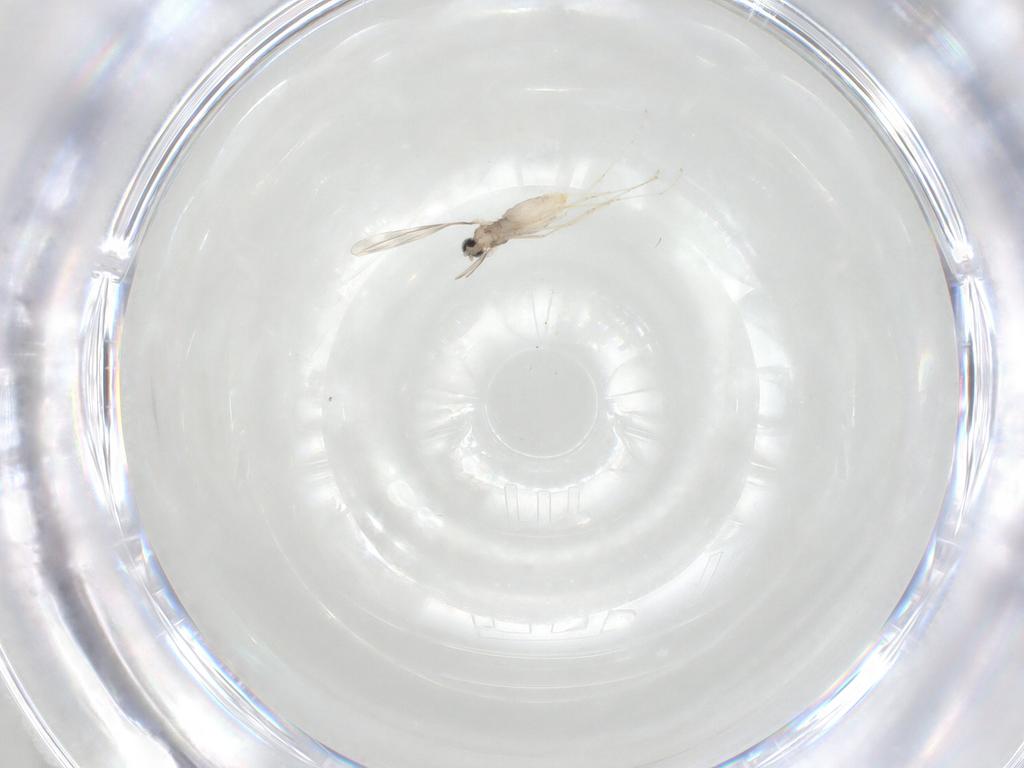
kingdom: Animalia
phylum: Arthropoda
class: Insecta
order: Diptera
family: Cecidomyiidae
